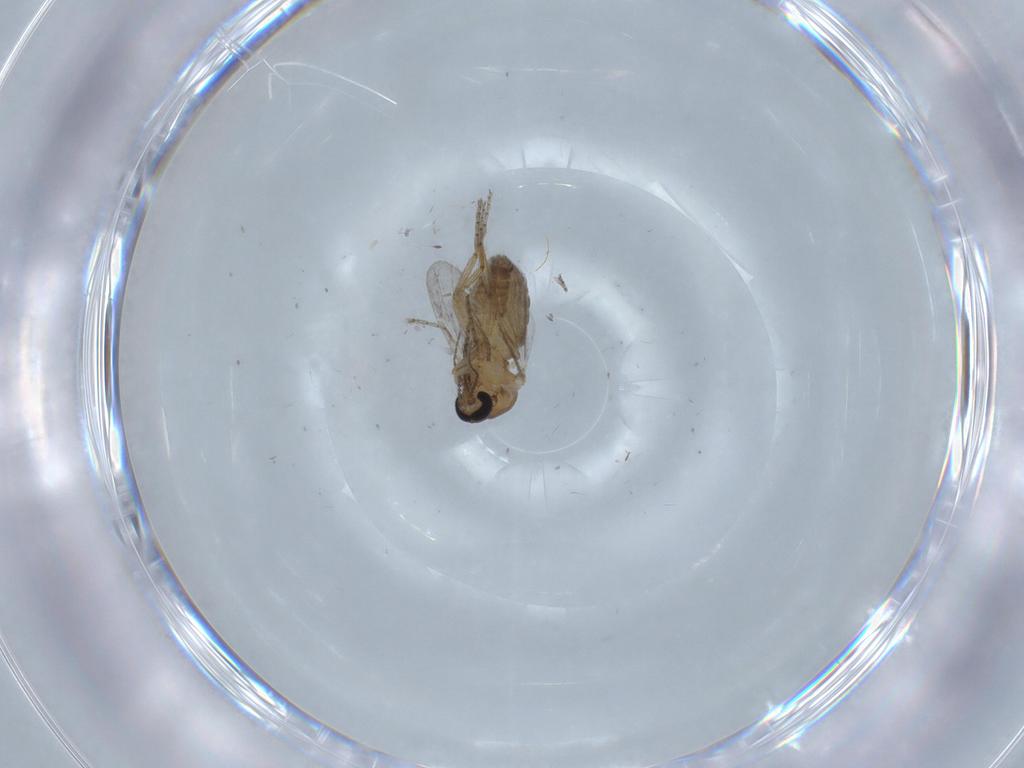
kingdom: Animalia
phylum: Arthropoda
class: Insecta
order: Diptera
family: Ceratopogonidae
